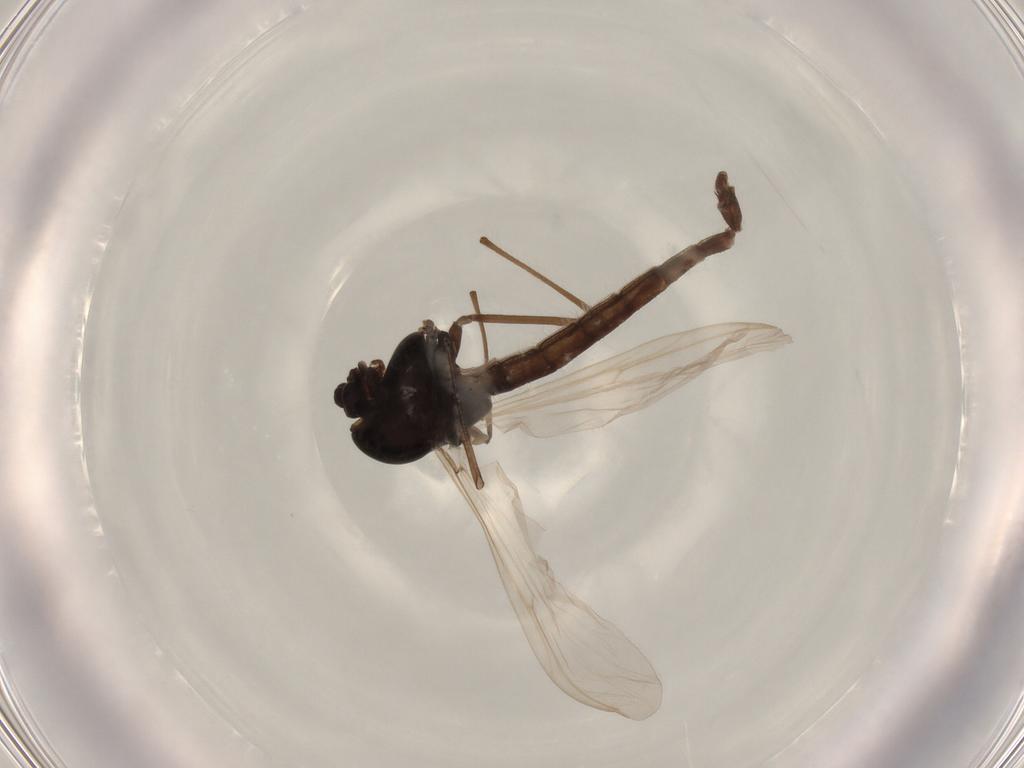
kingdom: Animalia
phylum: Arthropoda
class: Insecta
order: Diptera
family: Chironomidae
